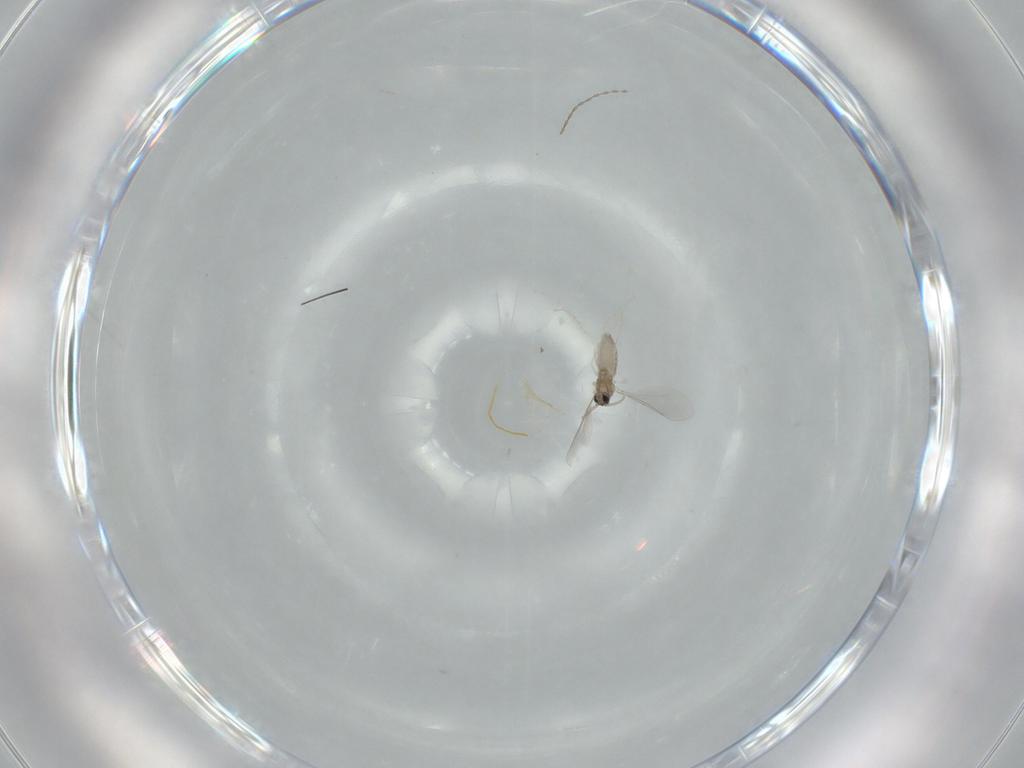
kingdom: Animalia
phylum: Arthropoda
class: Insecta
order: Diptera
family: Cecidomyiidae
